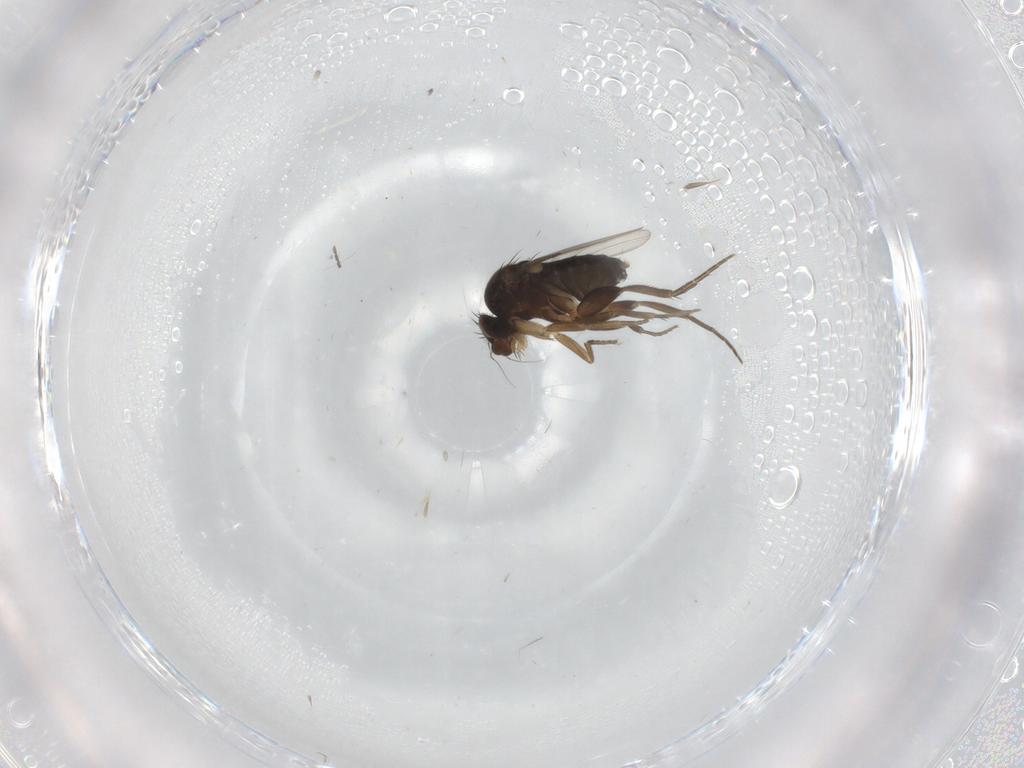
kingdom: Animalia
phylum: Arthropoda
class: Insecta
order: Diptera
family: Phoridae
